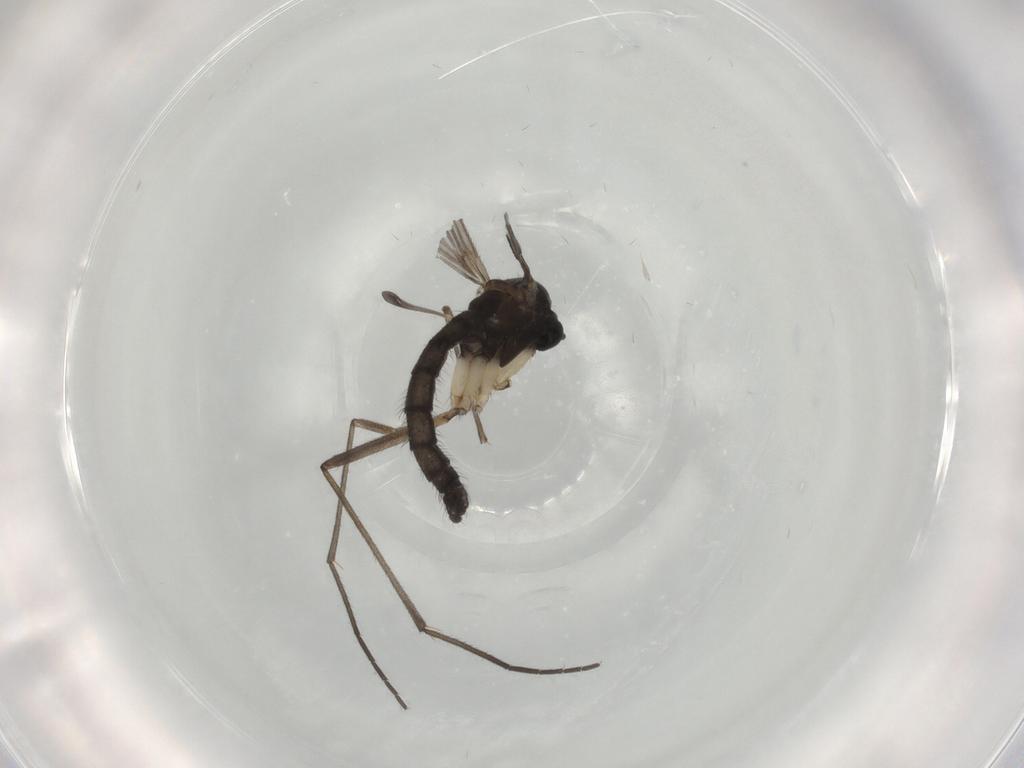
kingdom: Animalia
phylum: Arthropoda
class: Insecta
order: Diptera
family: Sciaridae
